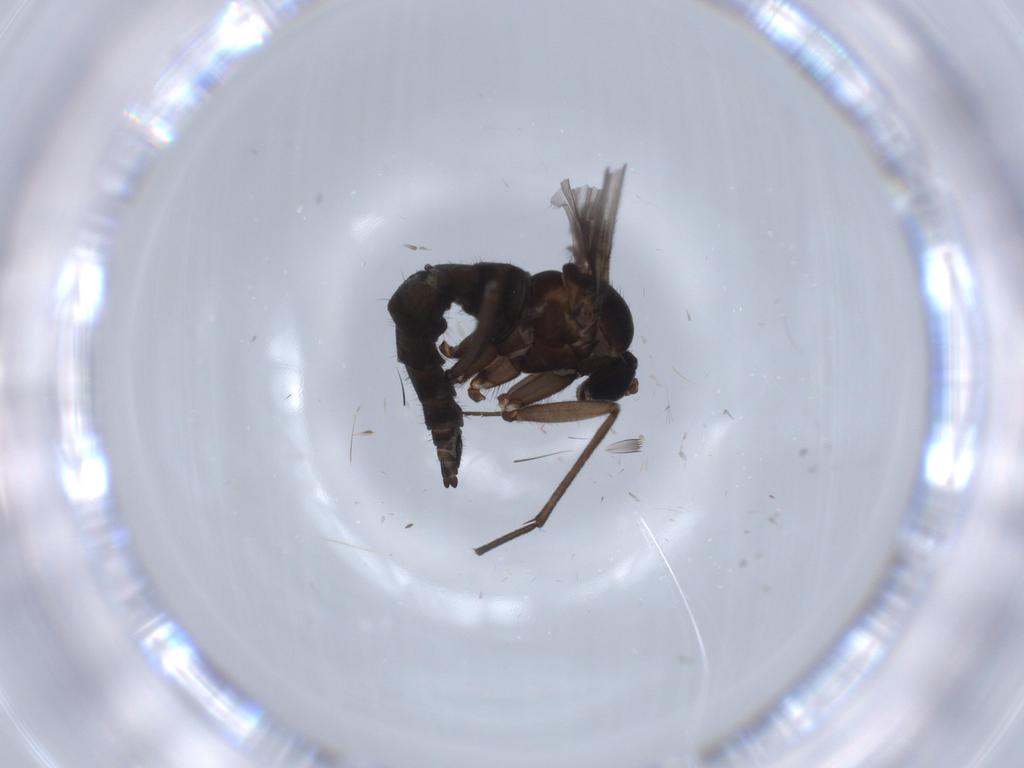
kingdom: Animalia
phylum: Arthropoda
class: Insecta
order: Diptera
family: Sciaridae
